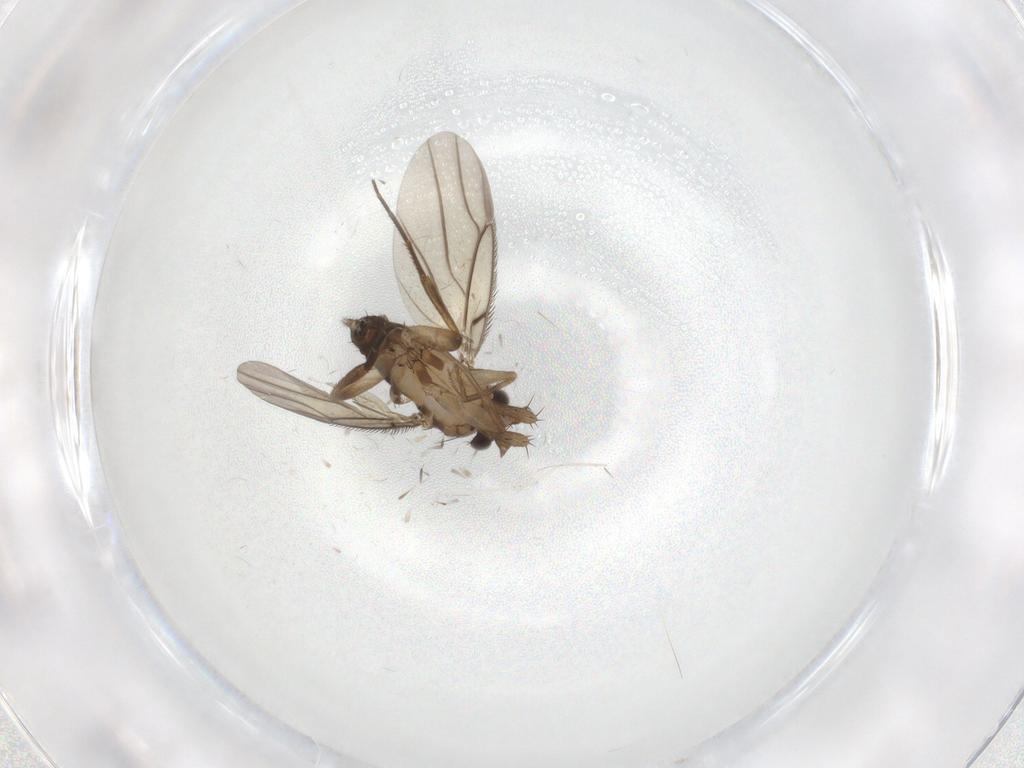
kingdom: Animalia
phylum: Arthropoda
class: Insecta
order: Diptera
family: Phoridae
